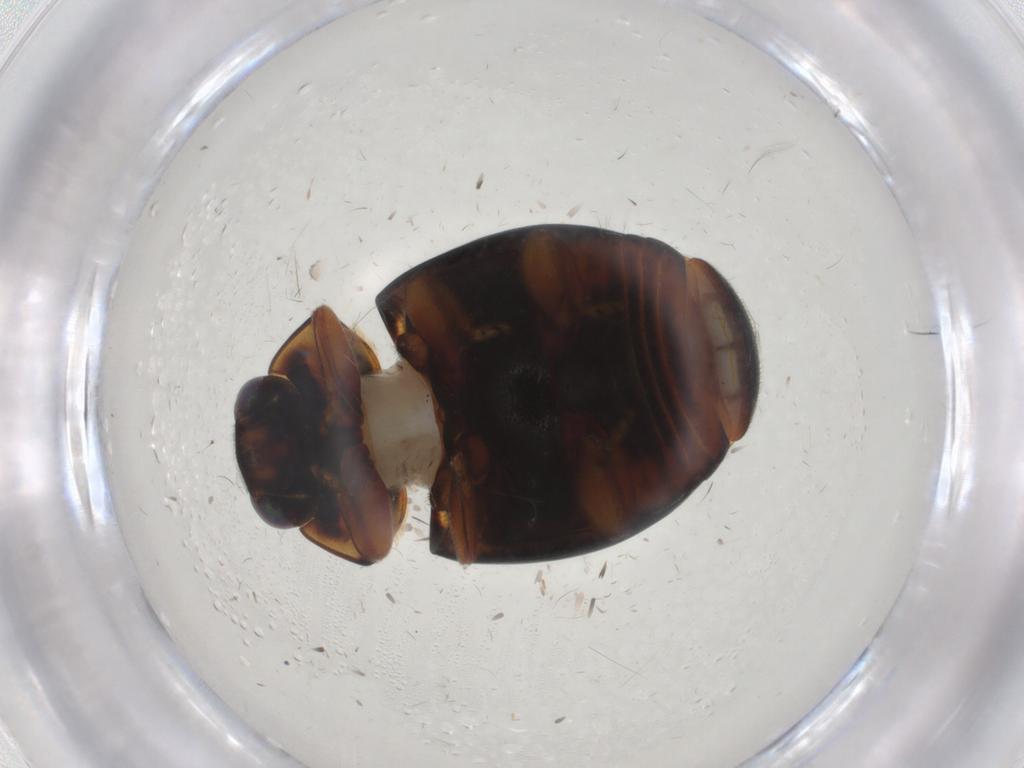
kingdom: Animalia
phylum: Arthropoda
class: Insecta
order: Coleoptera
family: Coccinellidae
